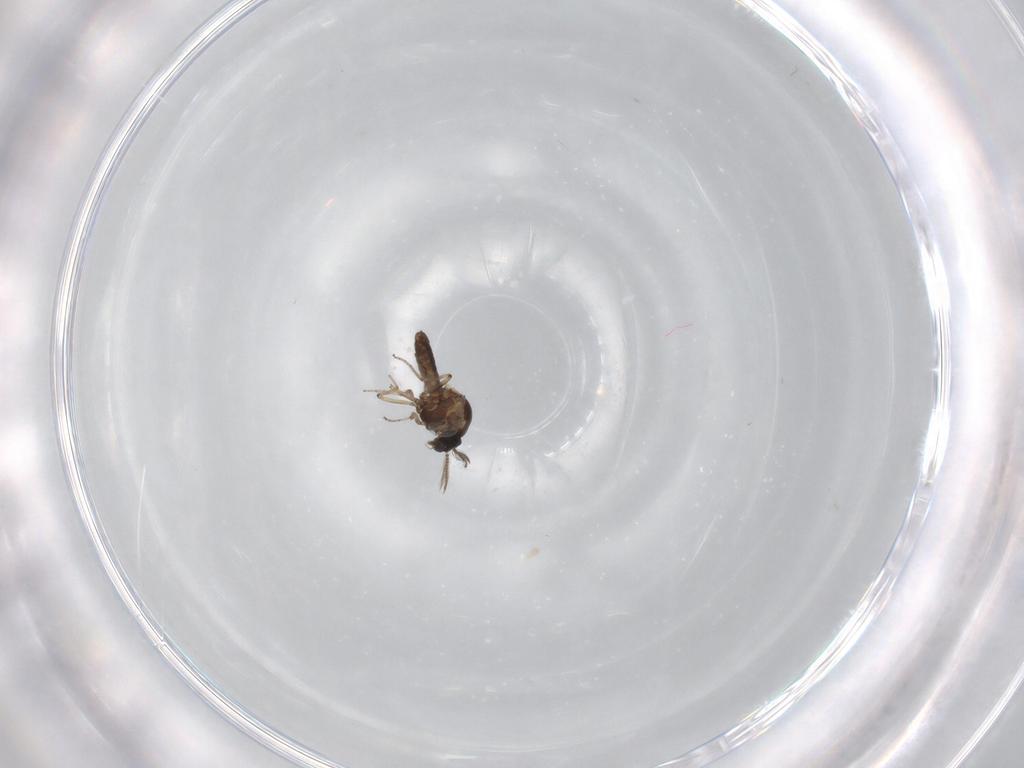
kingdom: Animalia
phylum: Arthropoda
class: Insecta
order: Diptera
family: Ceratopogonidae
